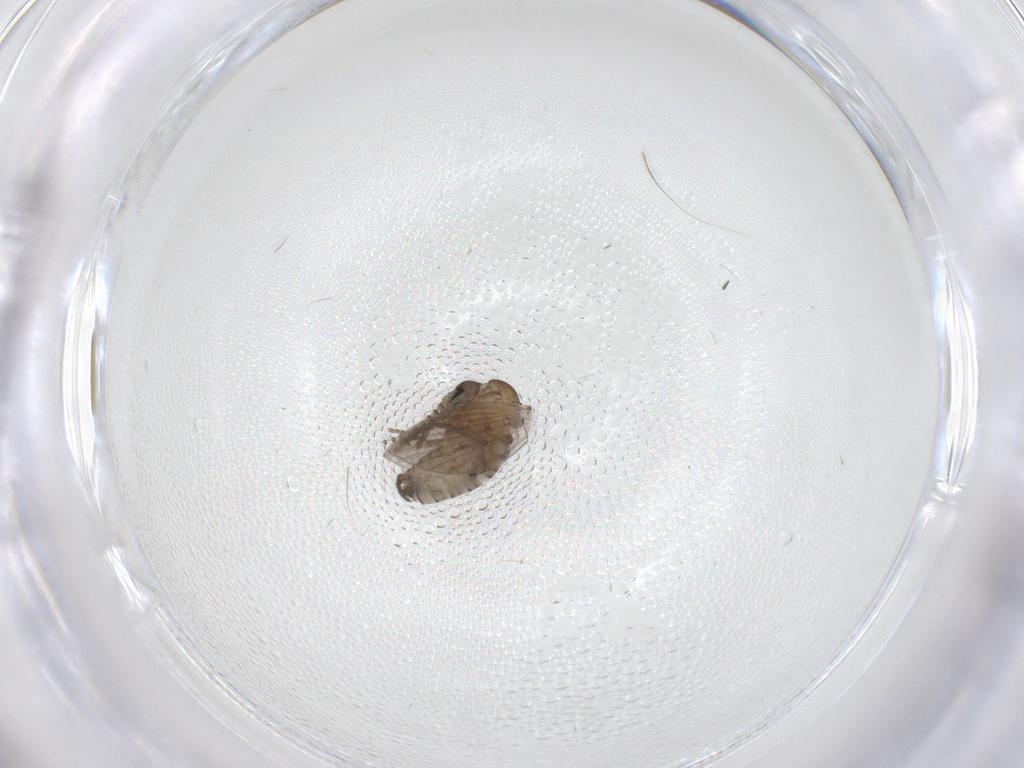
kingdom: Animalia
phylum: Arthropoda
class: Insecta
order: Diptera
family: Psychodidae
